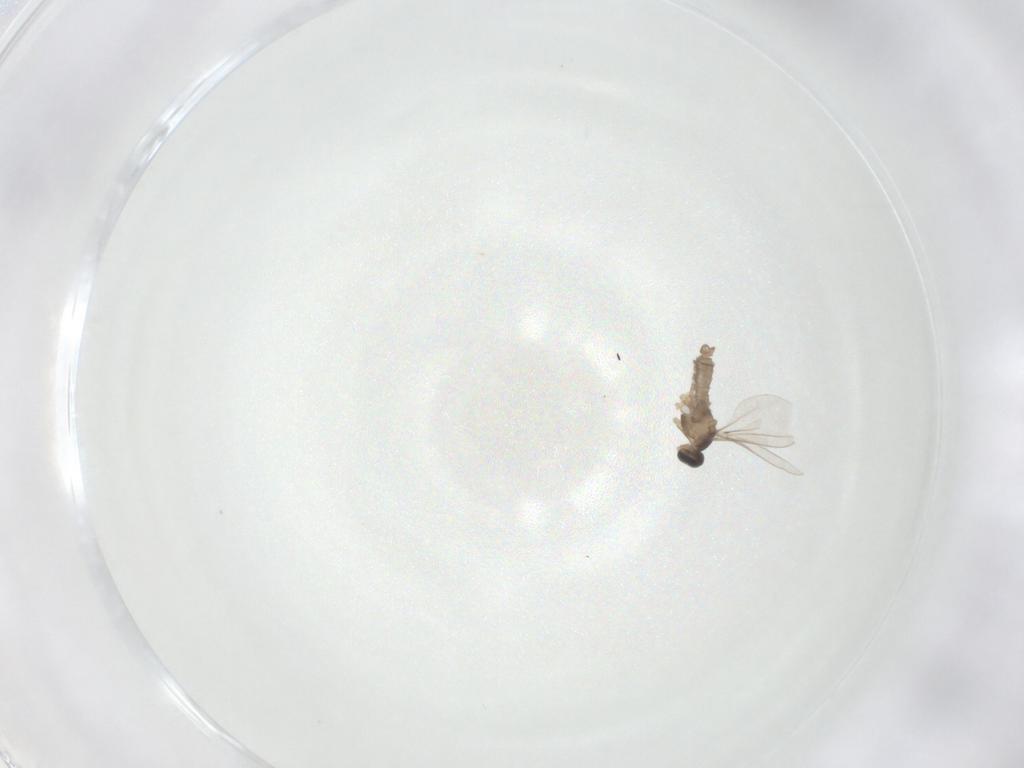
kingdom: Animalia
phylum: Arthropoda
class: Insecta
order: Diptera
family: Cecidomyiidae
